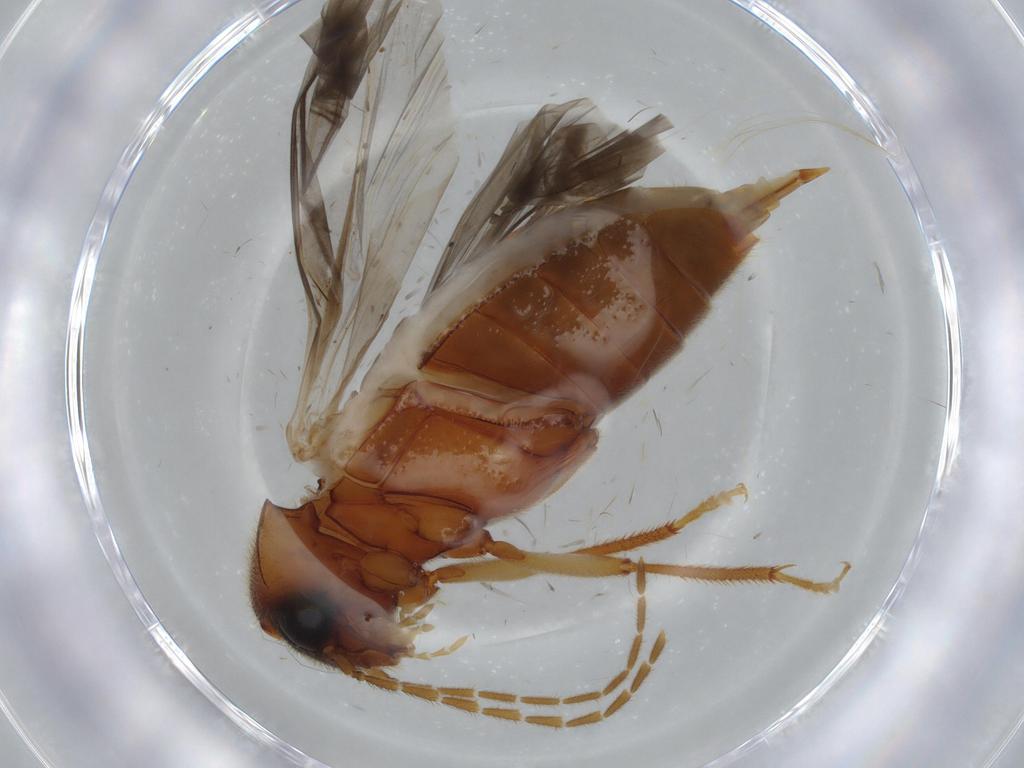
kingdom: Animalia
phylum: Arthropoda
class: Insecta
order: Coleoptera
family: Ptilodactylidae
